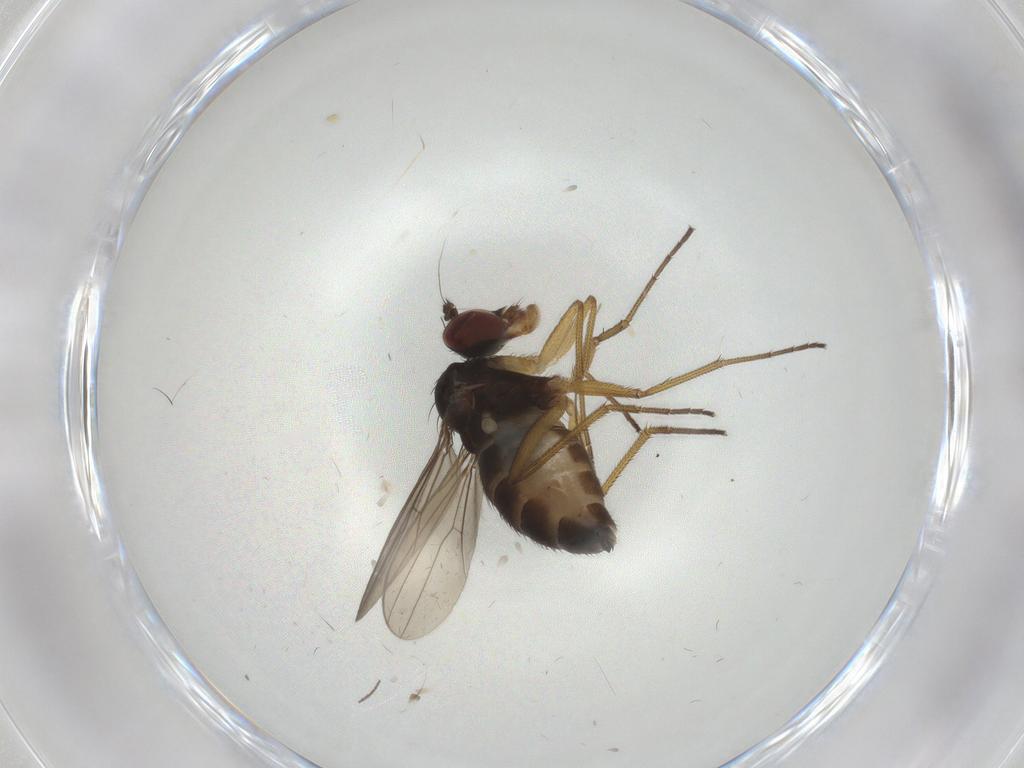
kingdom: Animalia
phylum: Arthropoda
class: Insecta
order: Diptera
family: Dolichopodidae
